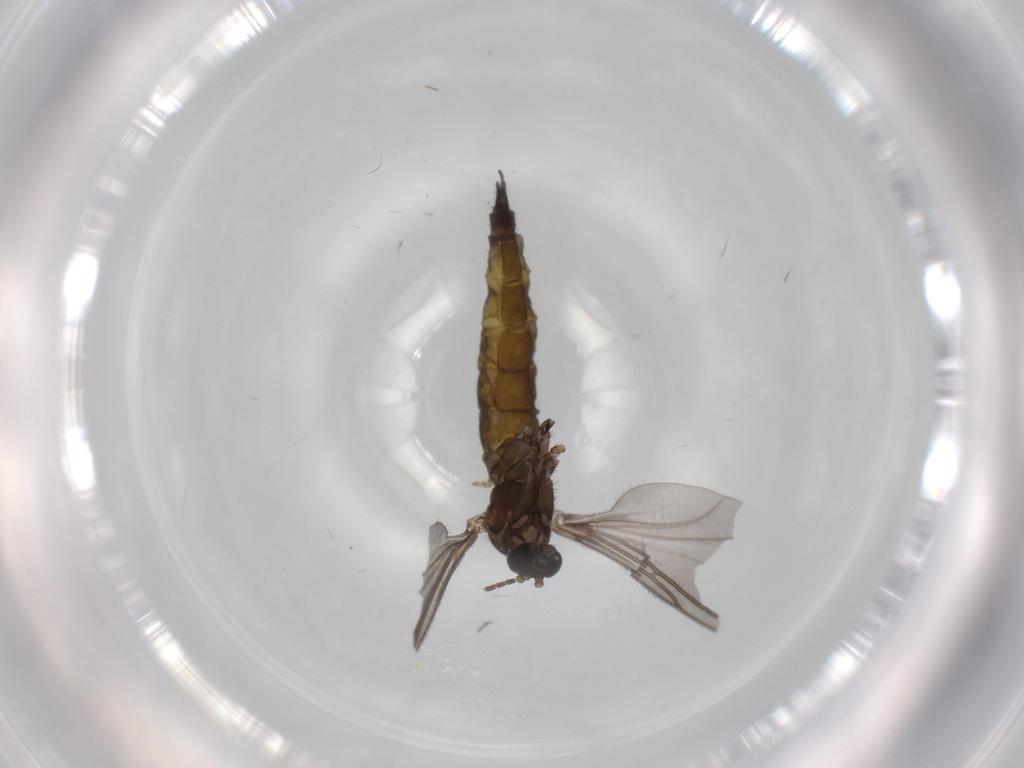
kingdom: Animalia
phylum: Arthropoda
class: Insecta
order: Diptera
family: Sciaridae
